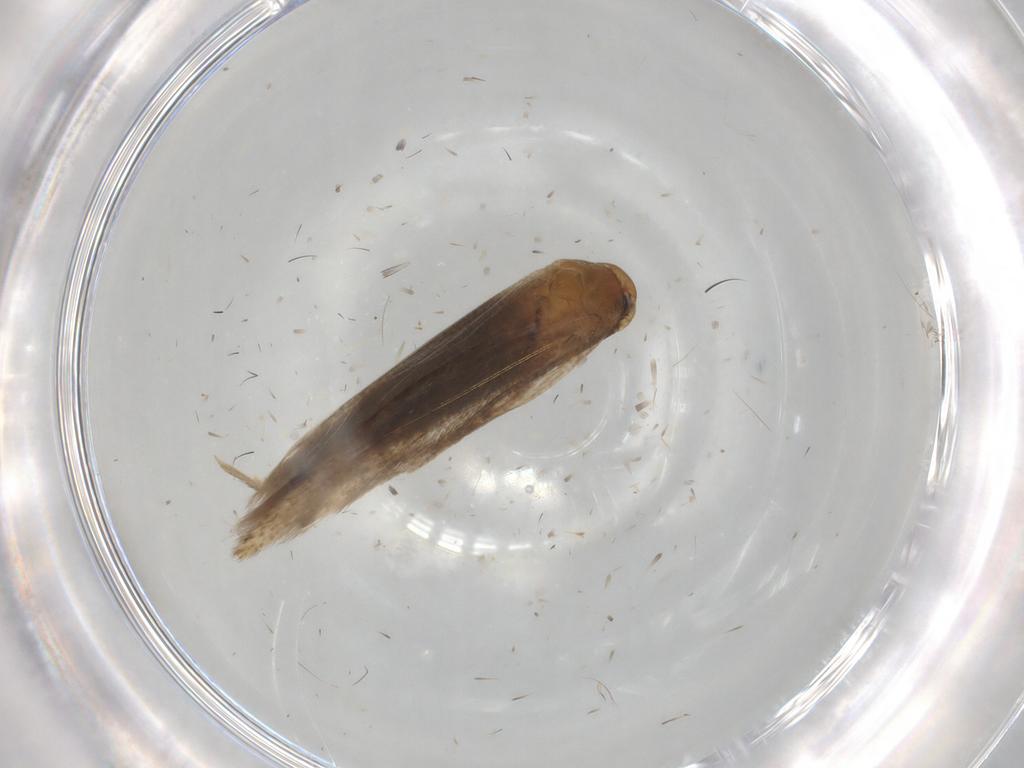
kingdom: Animalia
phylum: Arthropoda
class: Insecta
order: Lepidoptera
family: Cosmopterigidae
